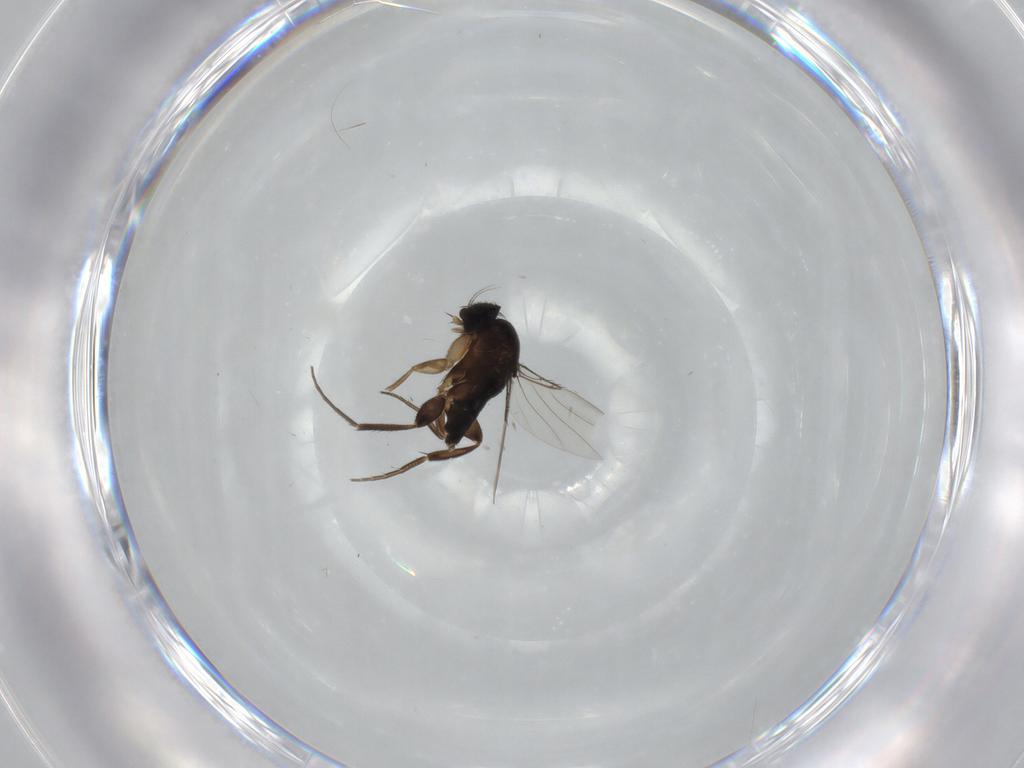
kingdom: Animalia
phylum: Arthropoda
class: Insecta
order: Diptera
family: Phoridae
